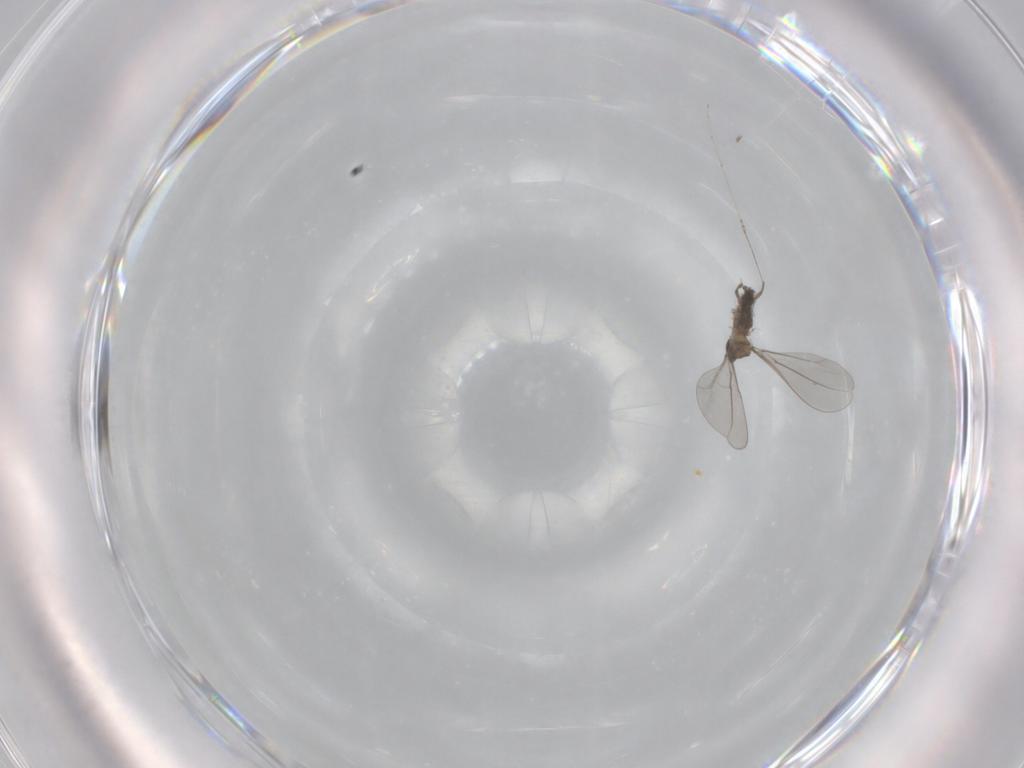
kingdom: Animalia
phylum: Arthropoda
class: Insecta
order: Diptera
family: Cecidomyiidae
